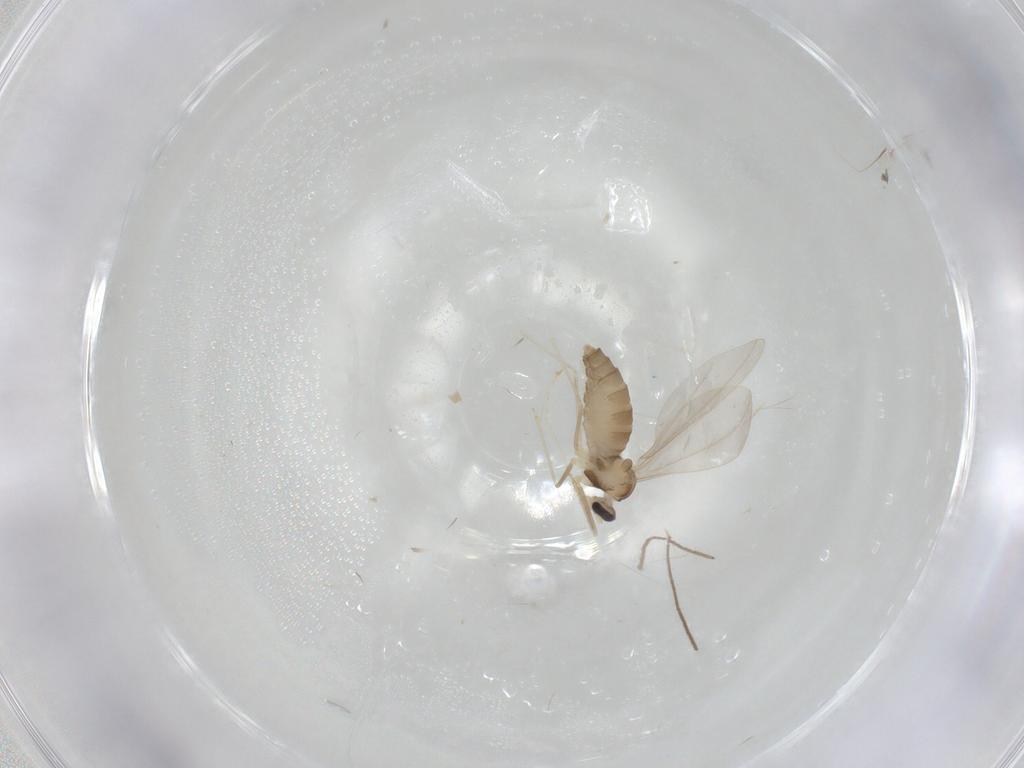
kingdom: Animalia
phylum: Arthropoda
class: Insecta
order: Diptera
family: Cecidomyiidae
